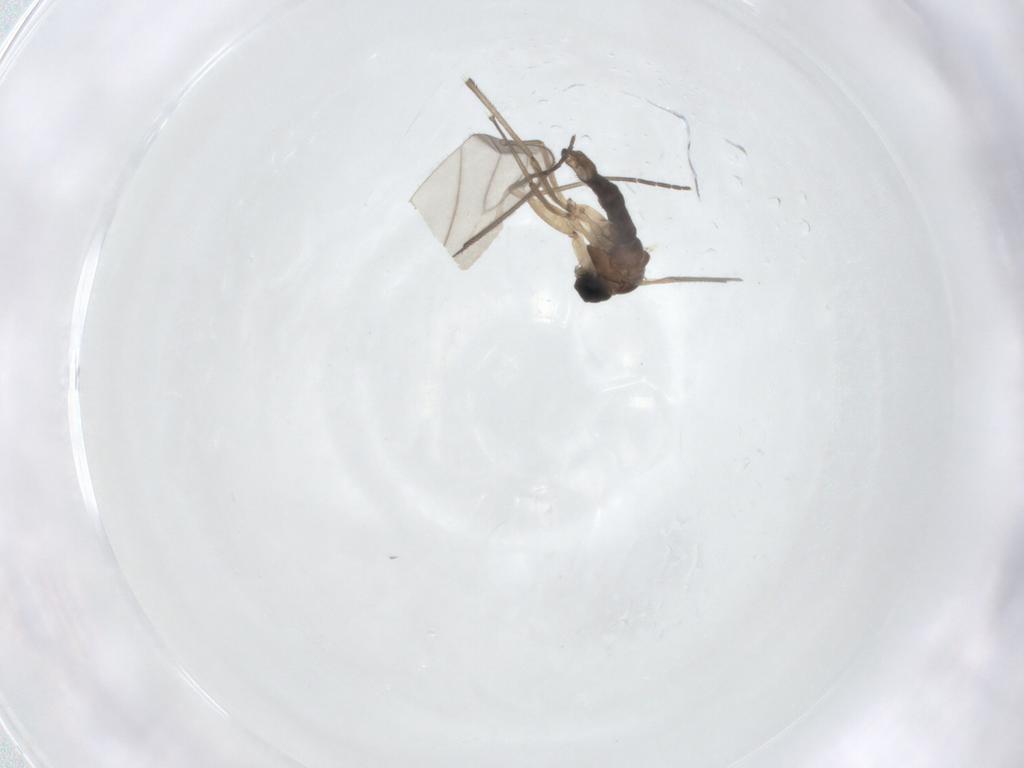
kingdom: Animalia
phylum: Arthropoda
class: Insecta
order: Diptera
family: Sciaridae
